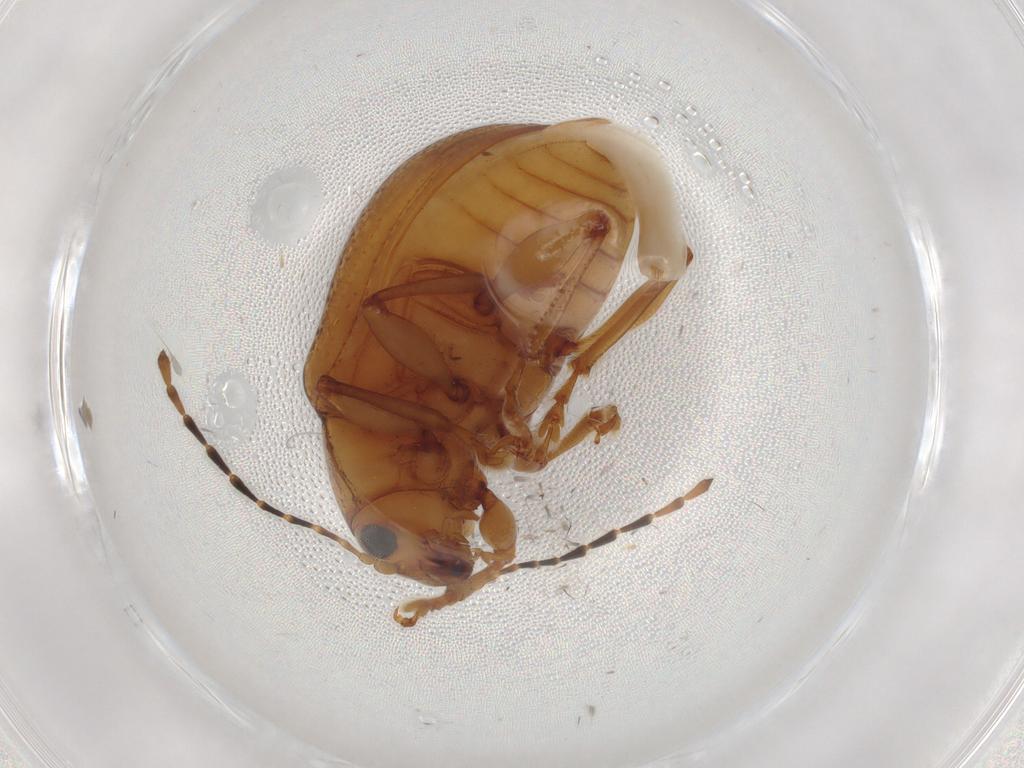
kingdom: Animalia
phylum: Arthropoda
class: Insecta
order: Coleoptera
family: Chrysomelidae
